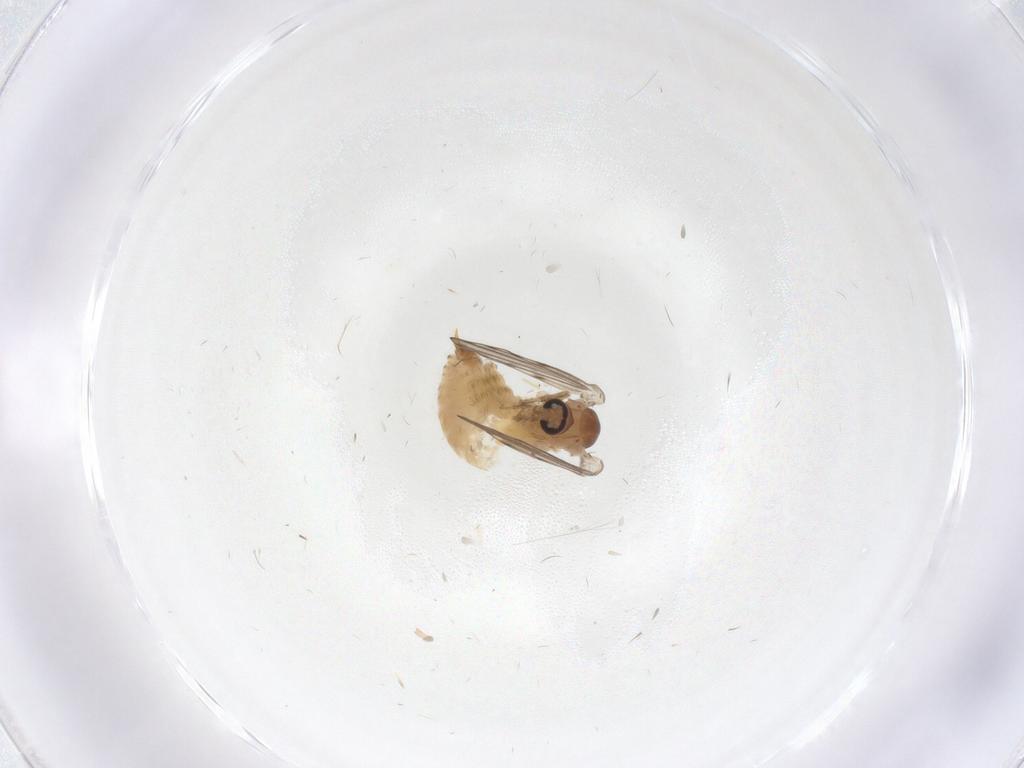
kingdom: Animalia
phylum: Arthropoda
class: Insecta
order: Diptera
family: Psychodidae
